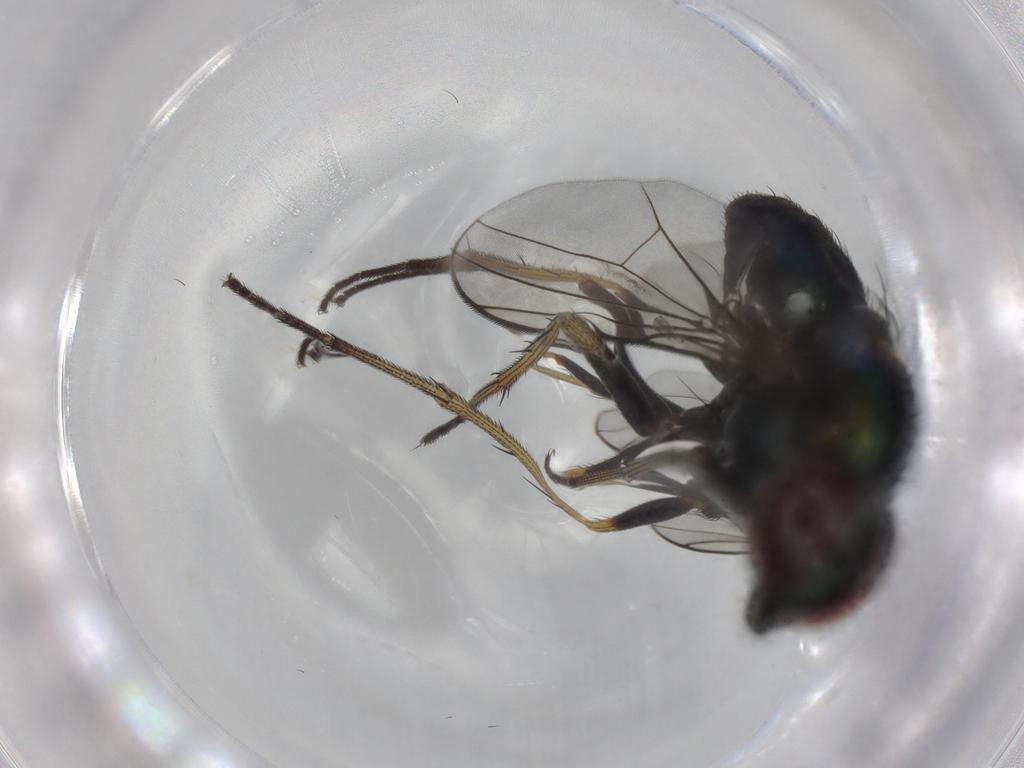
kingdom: Animalia
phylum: Arthropoda
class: Insecta
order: Diptera
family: Dolichopodidae
